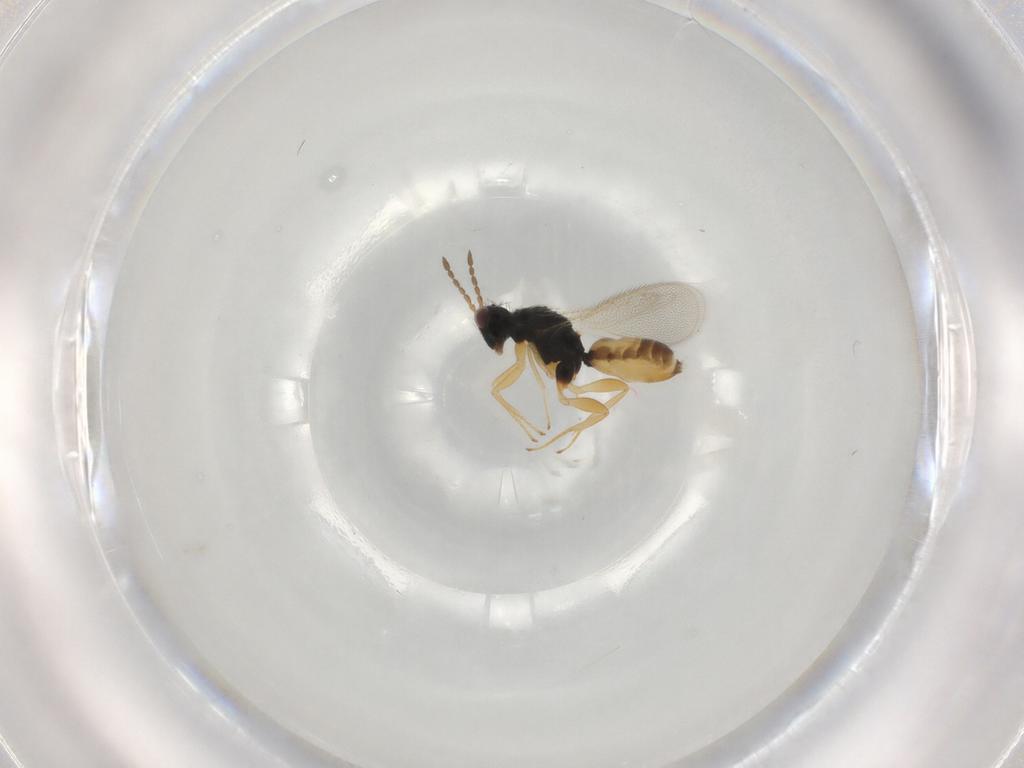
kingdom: Animalia
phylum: Arthropoda
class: Insecta
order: Hymenoptera
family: Eulophidae
